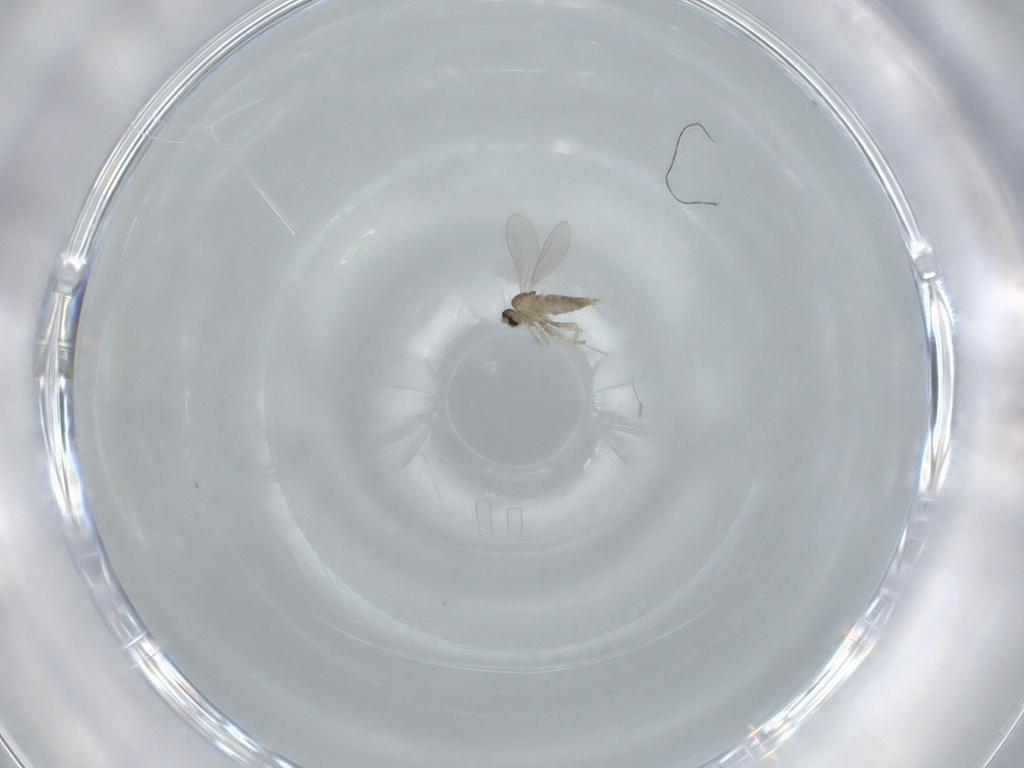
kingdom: Animalia
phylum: Arthropoda
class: Insecta
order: Diptera
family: Cecidomyiidae
